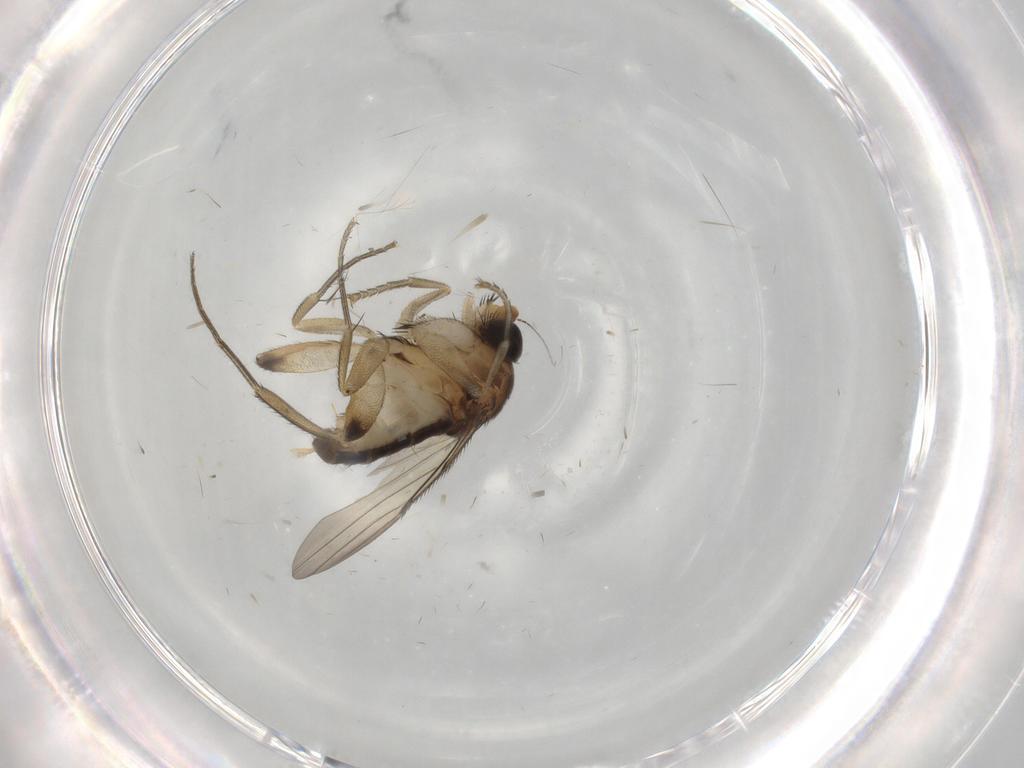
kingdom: Animalia
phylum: Arthropoda
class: Insecta
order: Diptera
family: Phoridae
